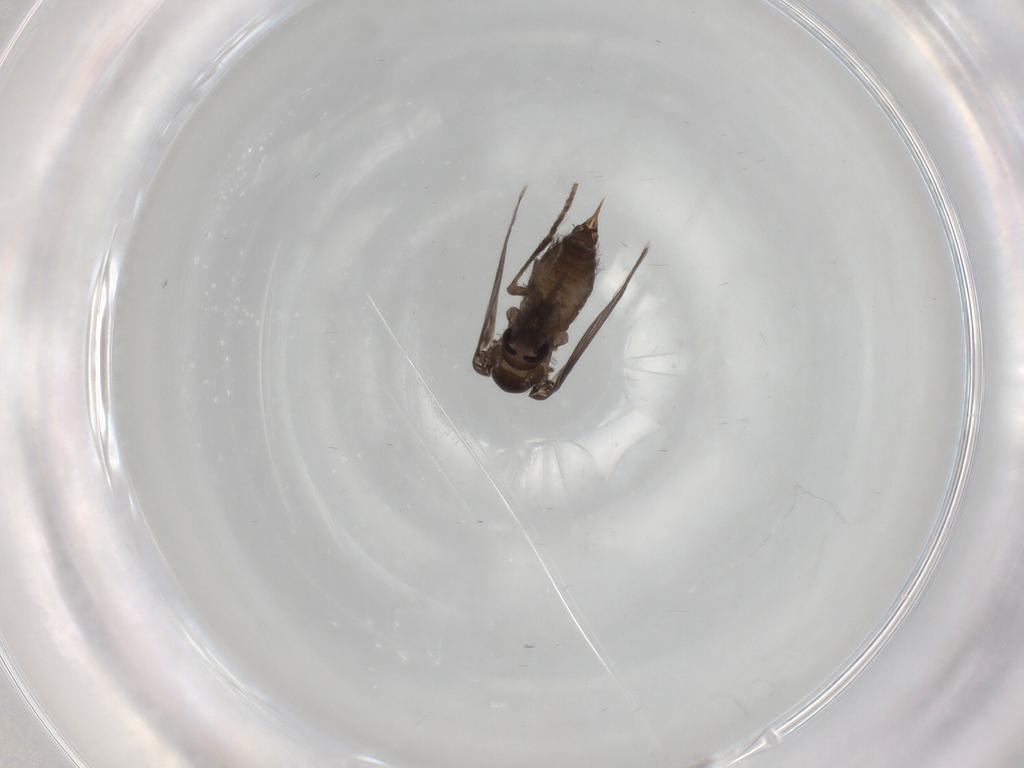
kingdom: Animalia
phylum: Arthropoda
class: Insecta
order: Diptera
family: Psychodidae
